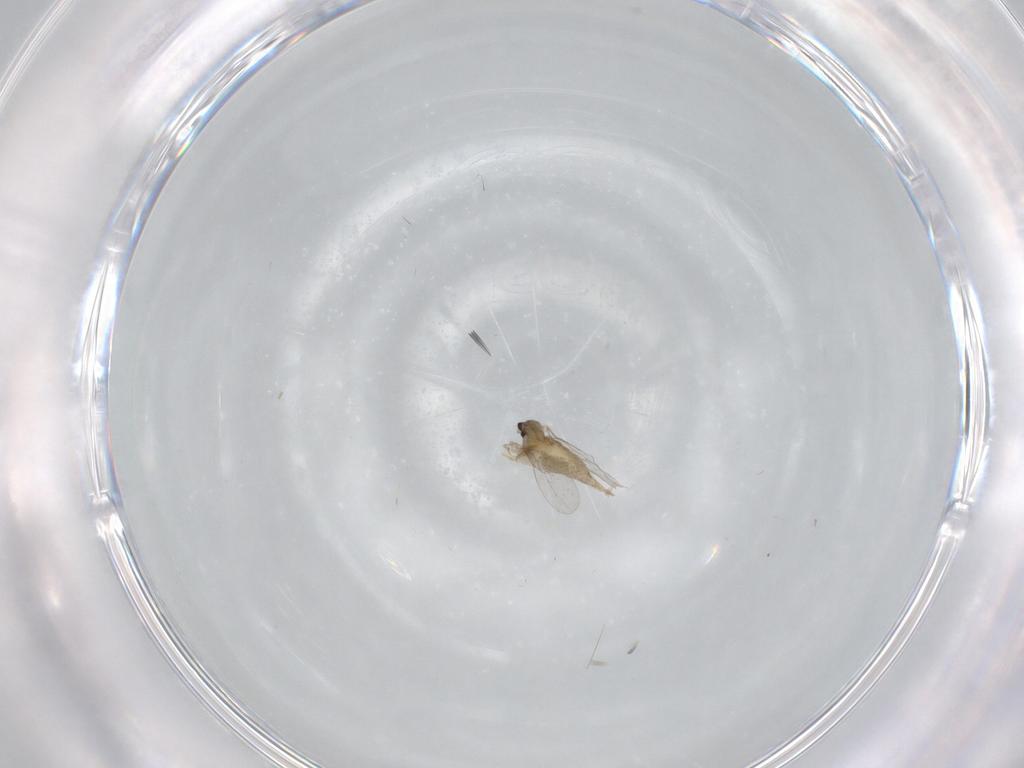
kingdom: Animalia
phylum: Arthropoda
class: Insecta
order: Diptera
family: Cecidomyiidae
